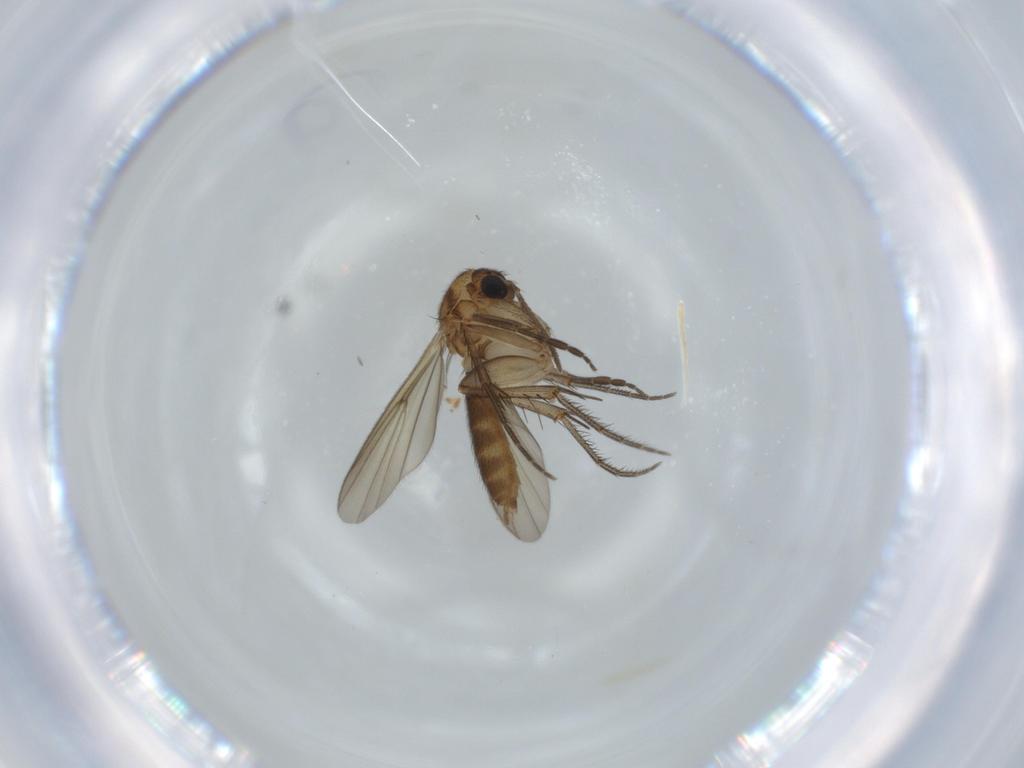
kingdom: Animalia
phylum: Arthropoda
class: Insecta
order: Diptera
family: Mycetophilidae
